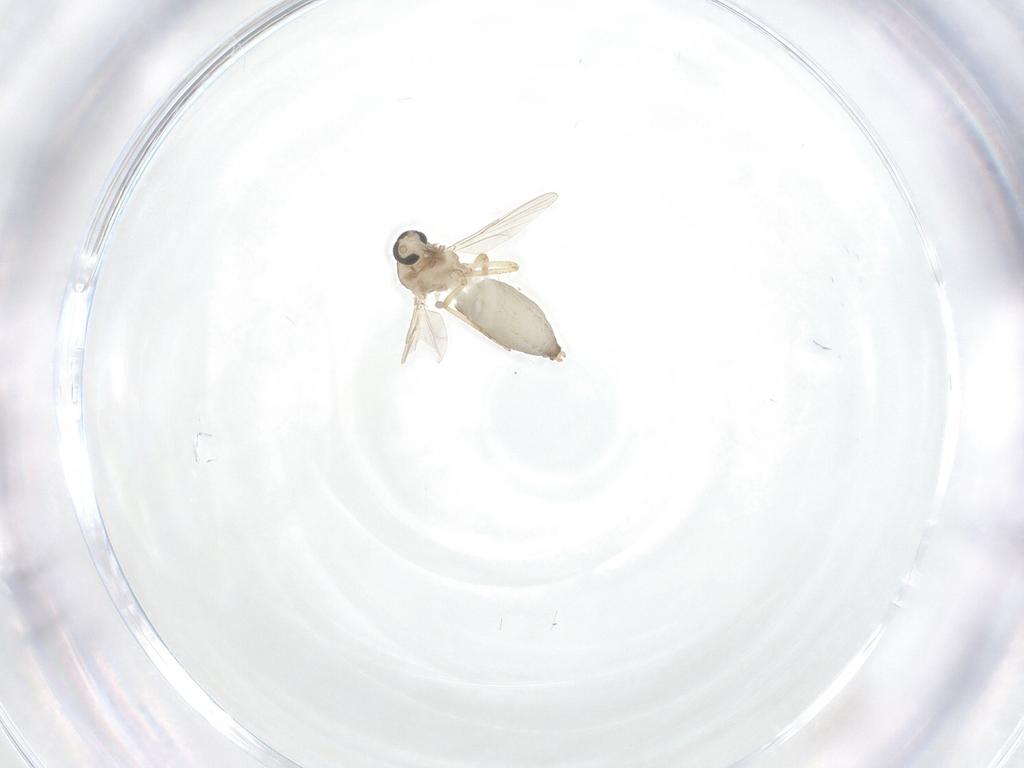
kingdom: Animalia
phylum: Arthropoda
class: Insecta
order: Diptera
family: Ceratopogonidae
